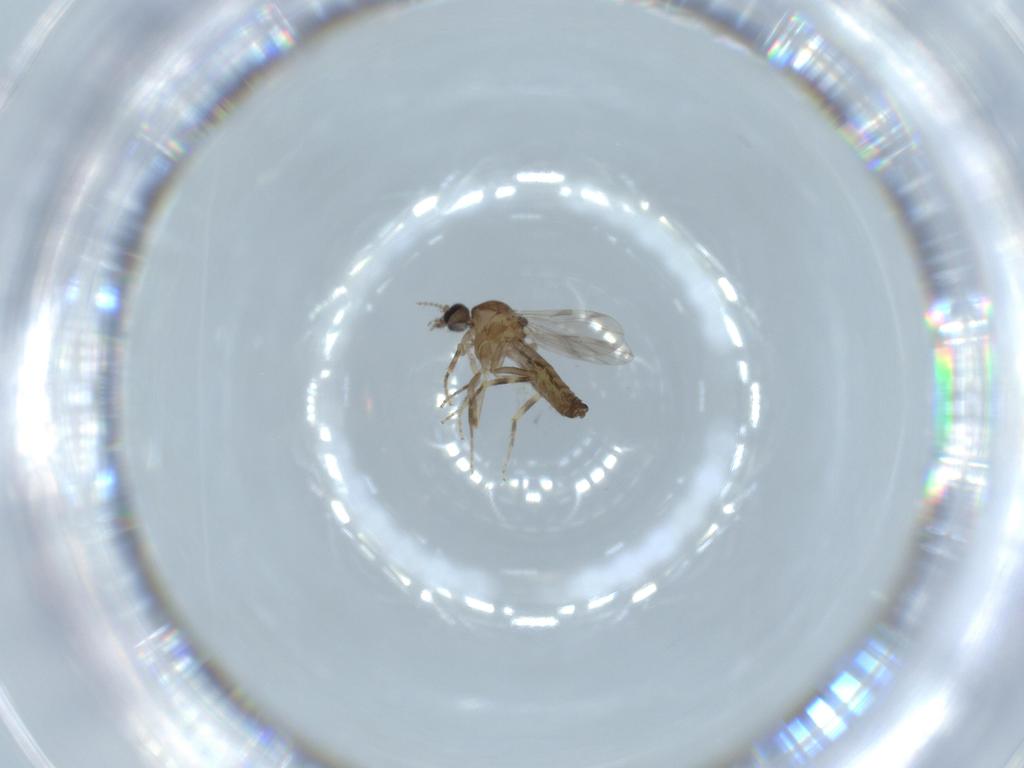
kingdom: Animalia
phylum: Arthropoda
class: Insecta
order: Diptera
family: Ceratopogonidae
